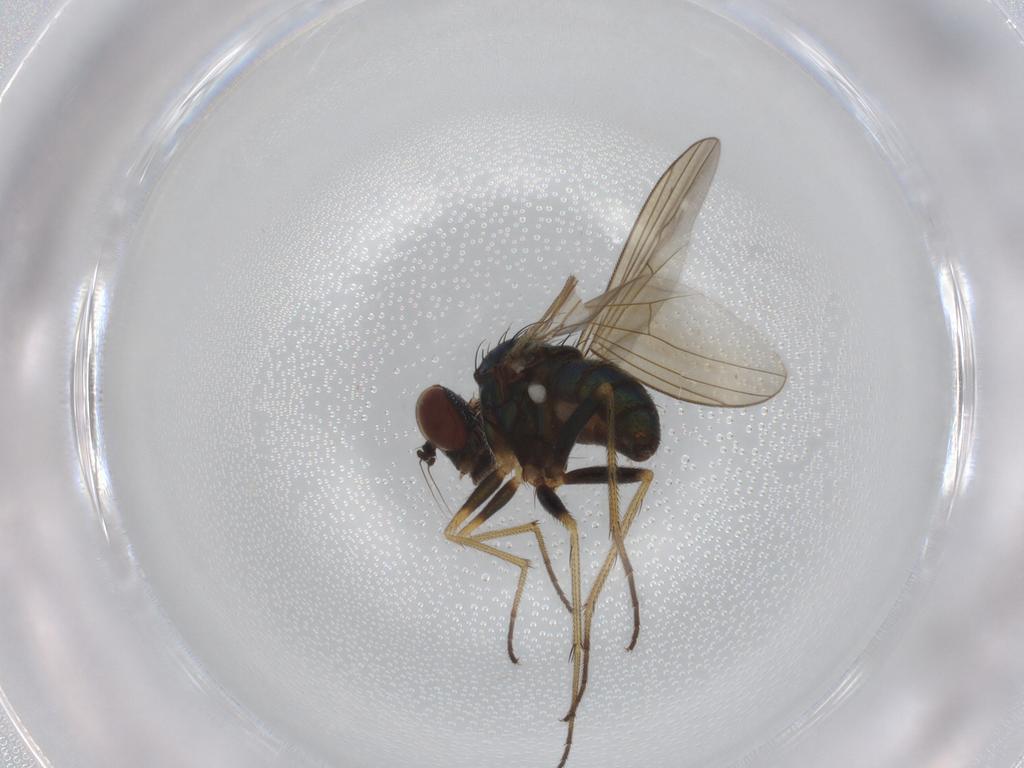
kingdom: Animalia
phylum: Arthropoda
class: Insecta
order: Diptera
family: Dolichopodidae
